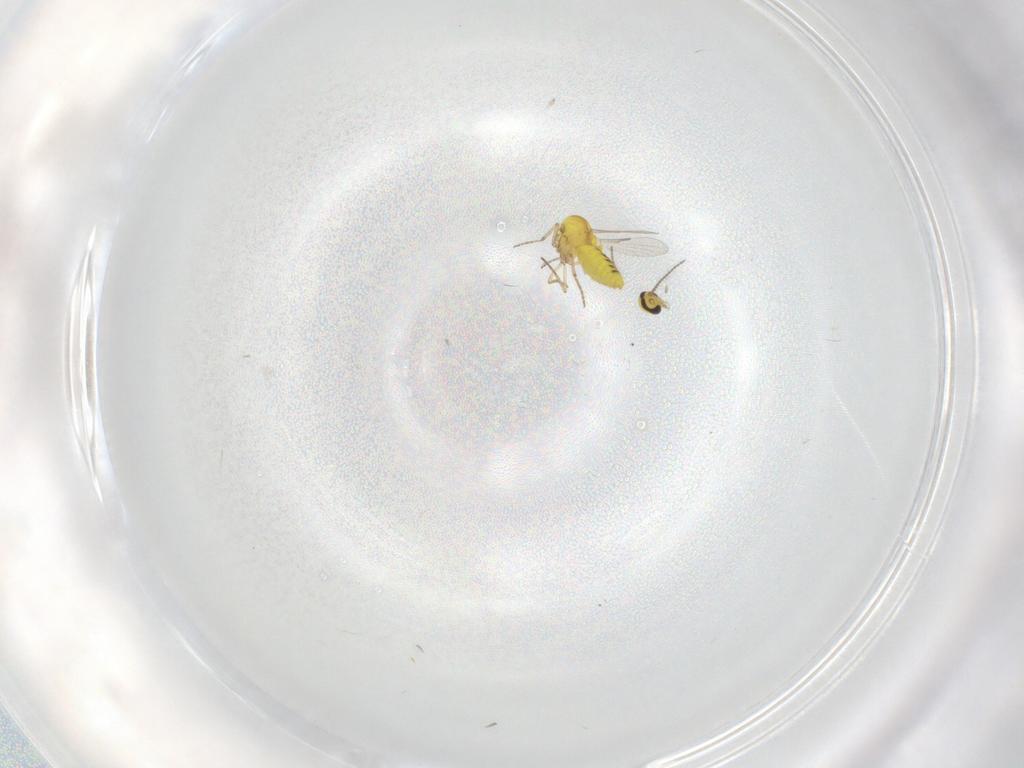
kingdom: Animalia
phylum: Arthropoda
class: Insecta
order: Diptera
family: Ceratopogonidae
